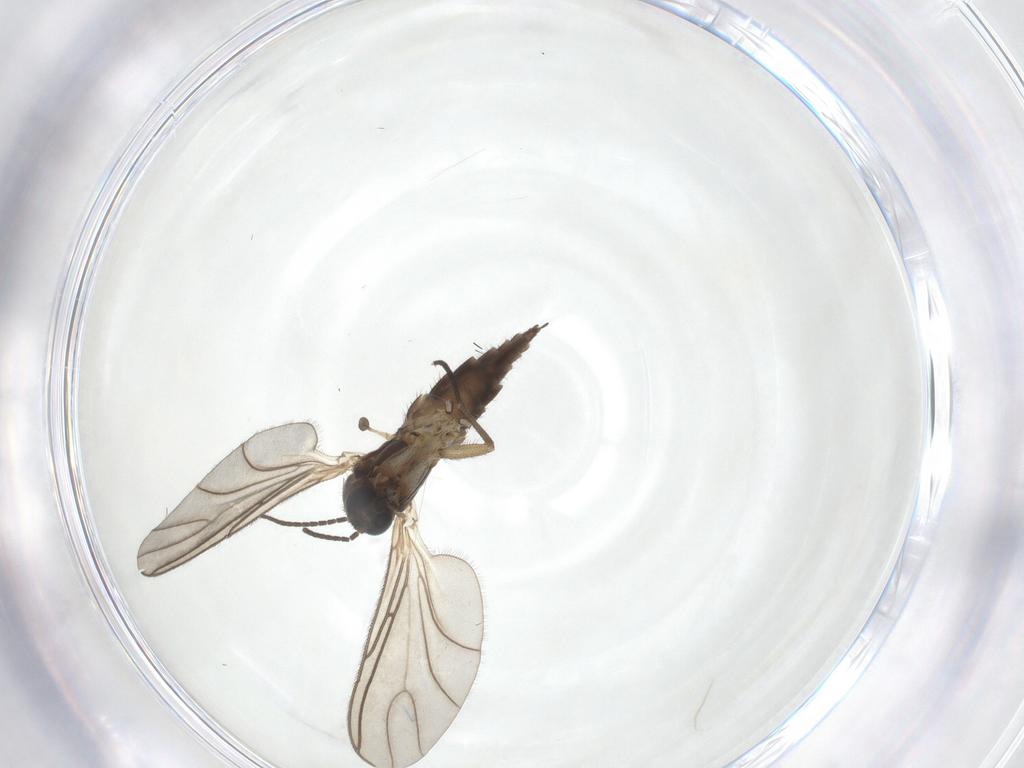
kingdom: Animalia
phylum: Arthropoda
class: Insecta
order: Diptera
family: Sciaridae
